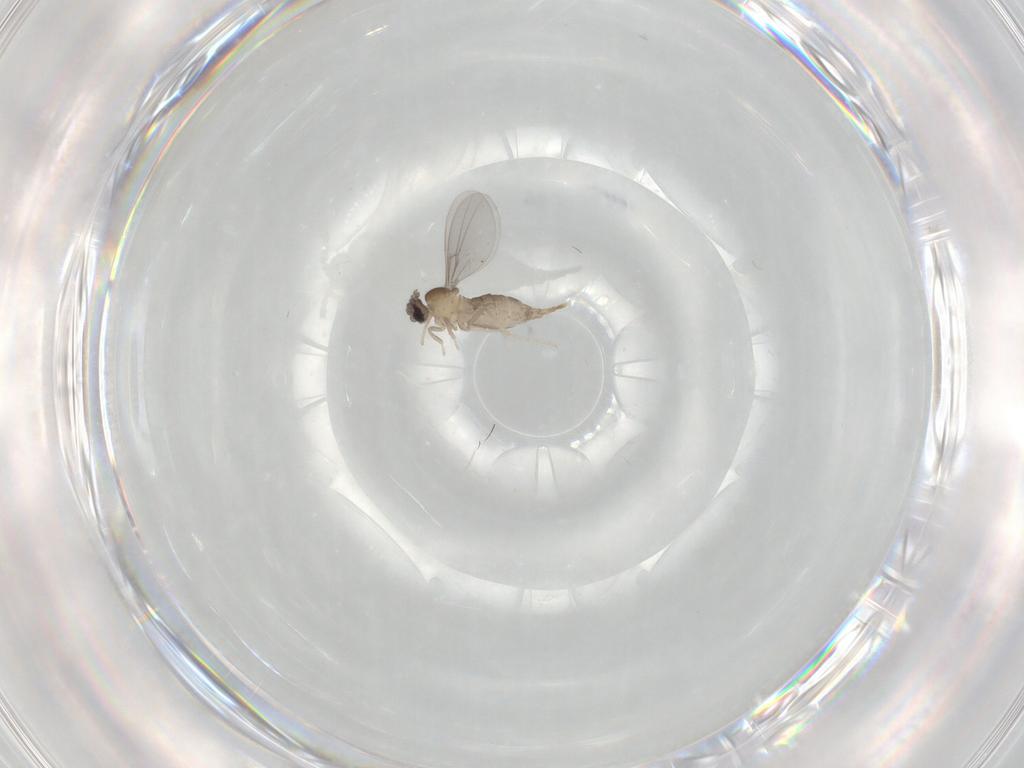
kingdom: Animalia
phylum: Arthropoda
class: Insecta
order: Diptera
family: Cecidomyiidae
